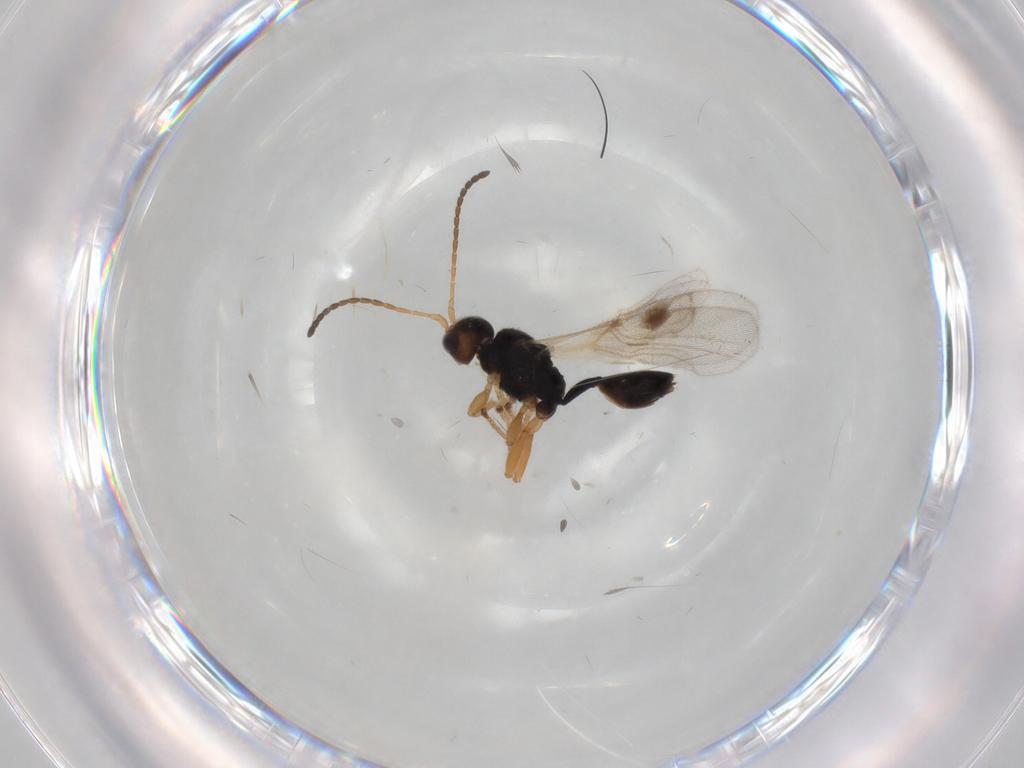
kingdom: Animalia
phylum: Arthropoda
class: Insecta
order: Hymenoptera
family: Braconidae
